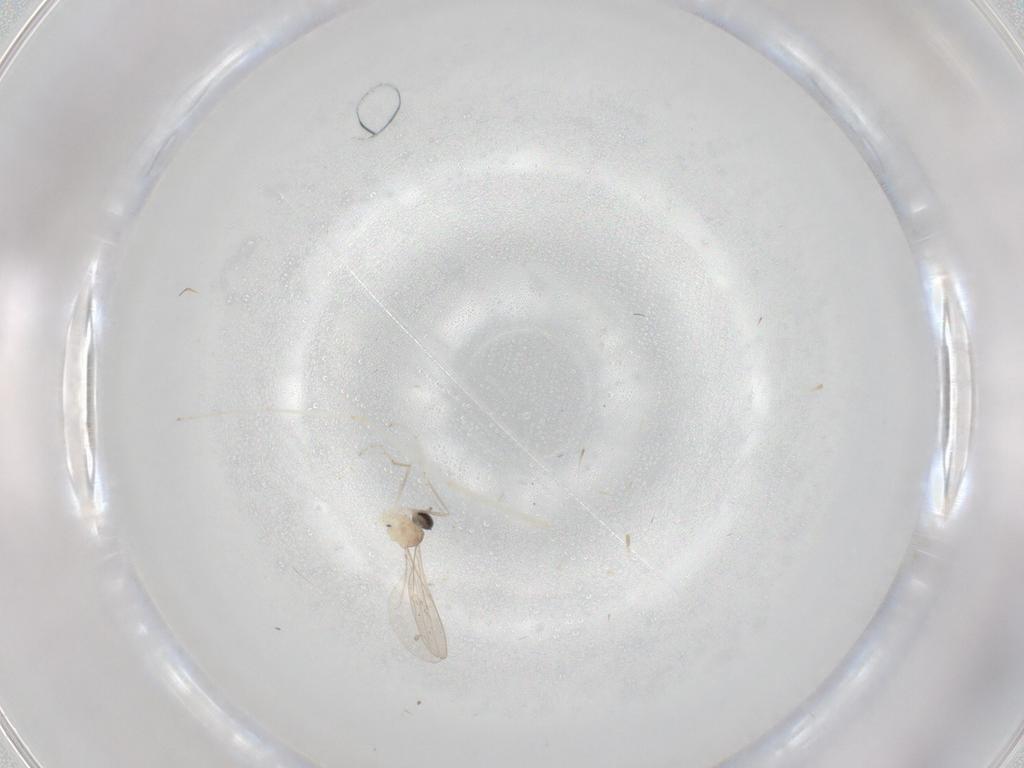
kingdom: Animalia
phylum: Arthropoda
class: Insecta
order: Diptera
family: Cecidomyiidae
